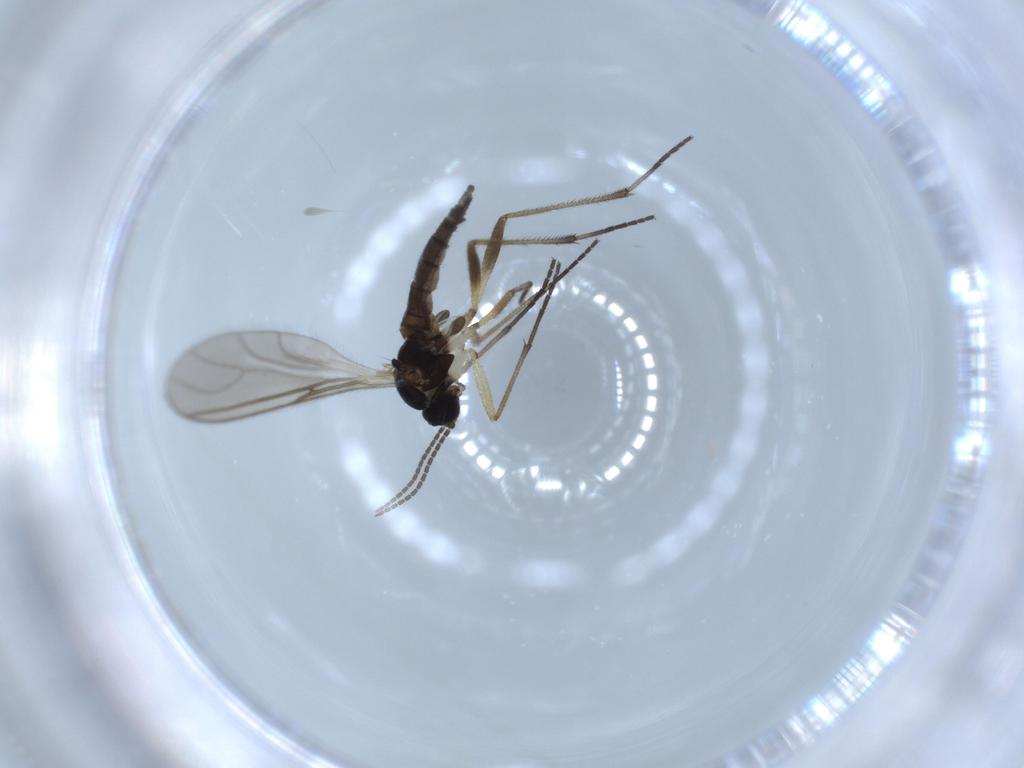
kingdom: Animalia
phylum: Arthropoda
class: Insecta
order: Diptera
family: Sciaridae
